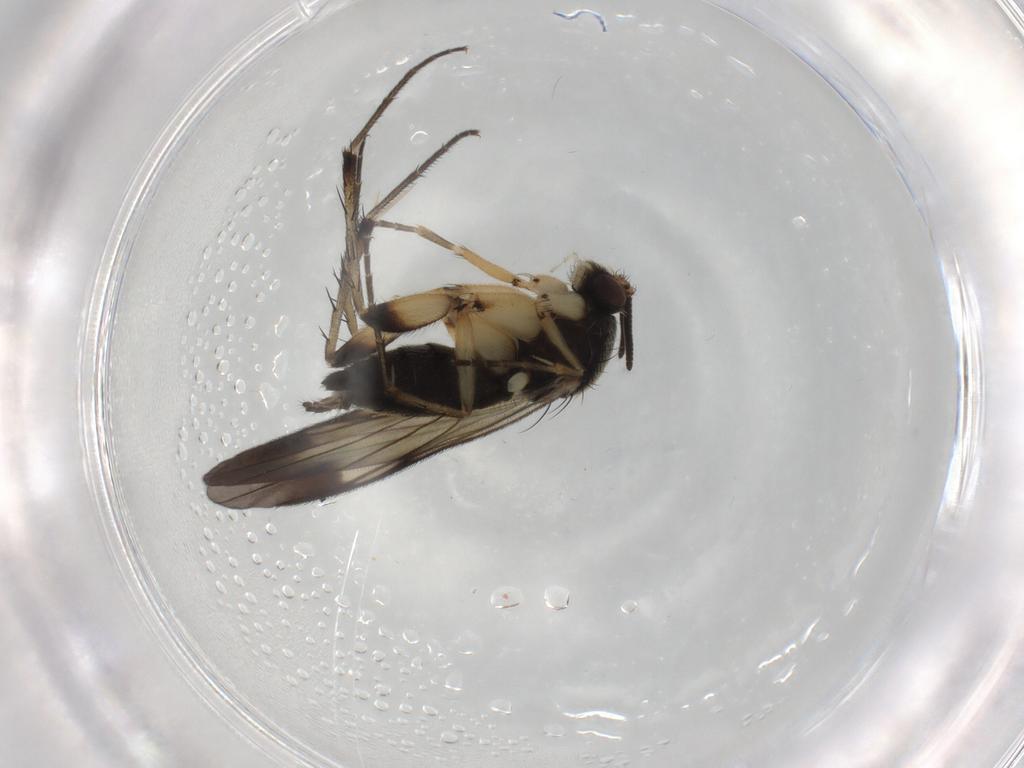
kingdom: Animalia
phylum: Arthropoda
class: Insecta
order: Diptera
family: Mycetophilidae
